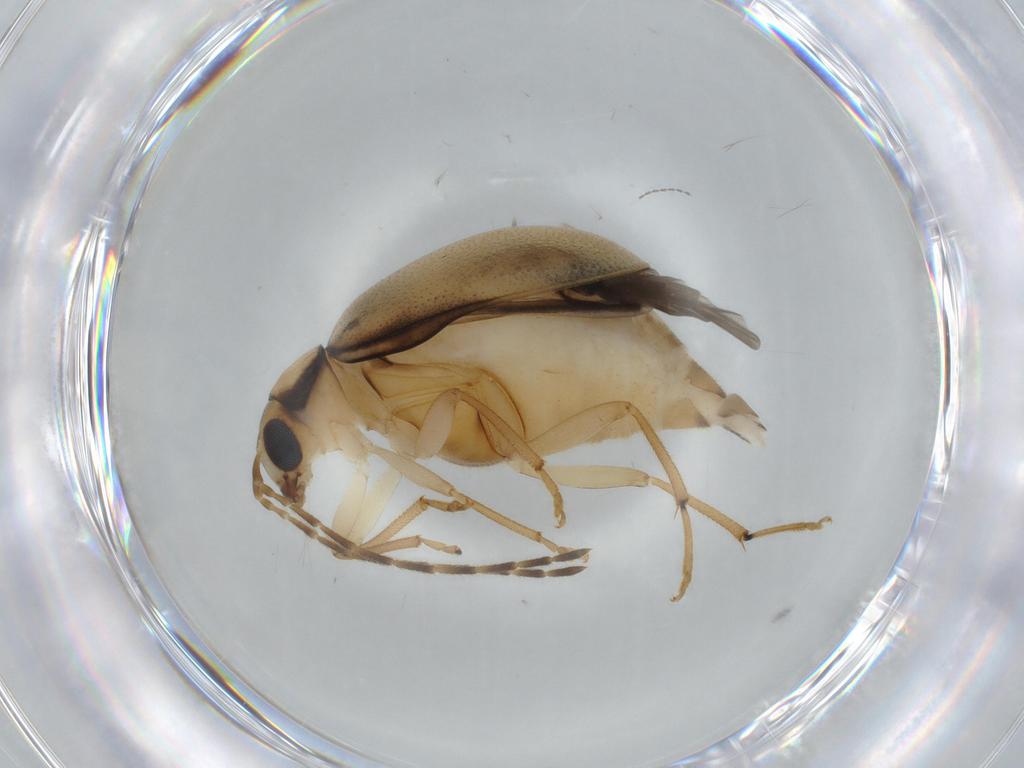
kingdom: Animalia
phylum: Arthropoda
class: Insecta
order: Coleoptera
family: Chrysomelidae
